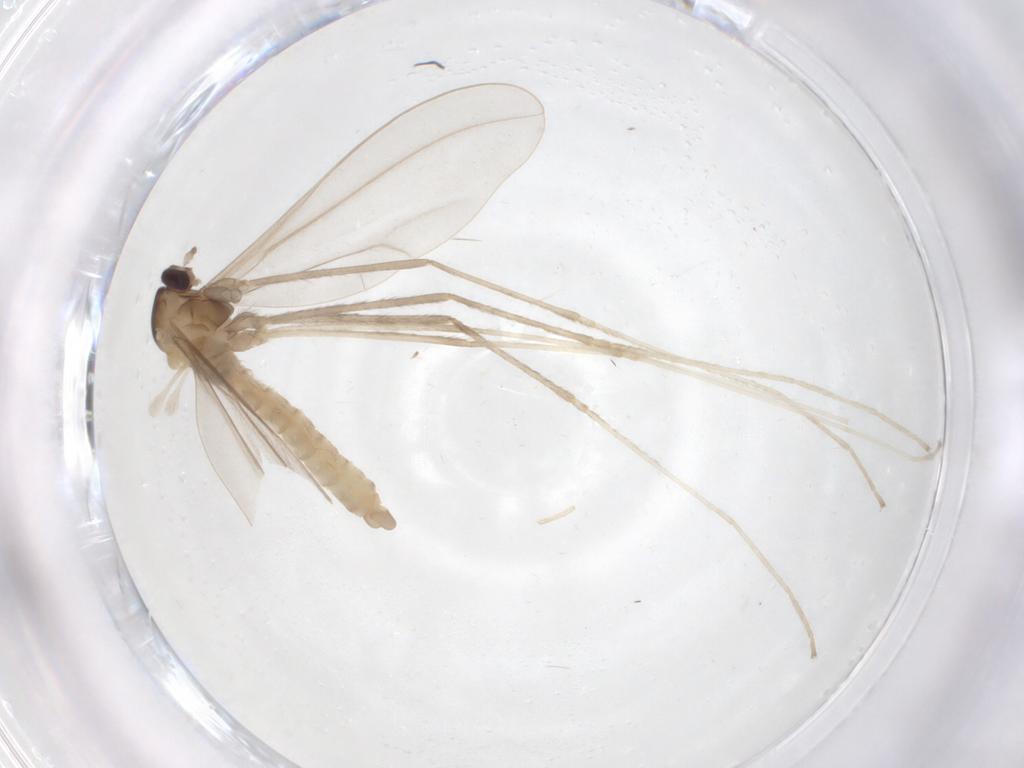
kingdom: Animalia
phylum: Arthropoda
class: Insecta
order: Diptera
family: Cecidomyiidae
